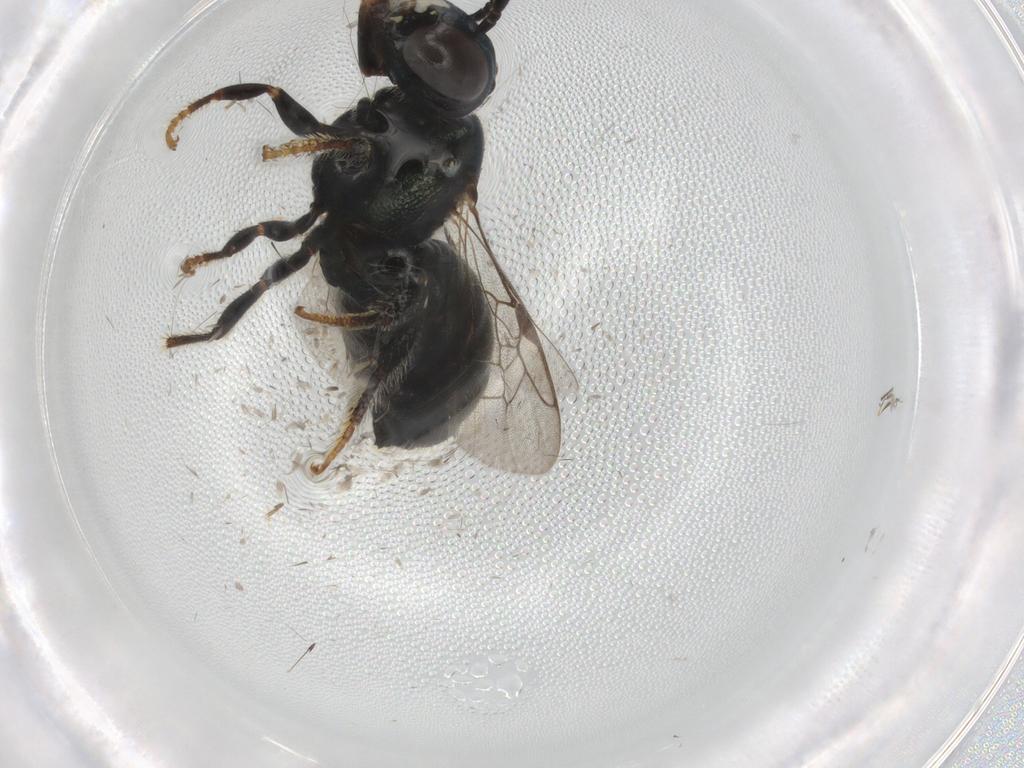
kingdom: Animalia
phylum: Arthropoda
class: Insecta
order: Hymenoptera
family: Apidae
